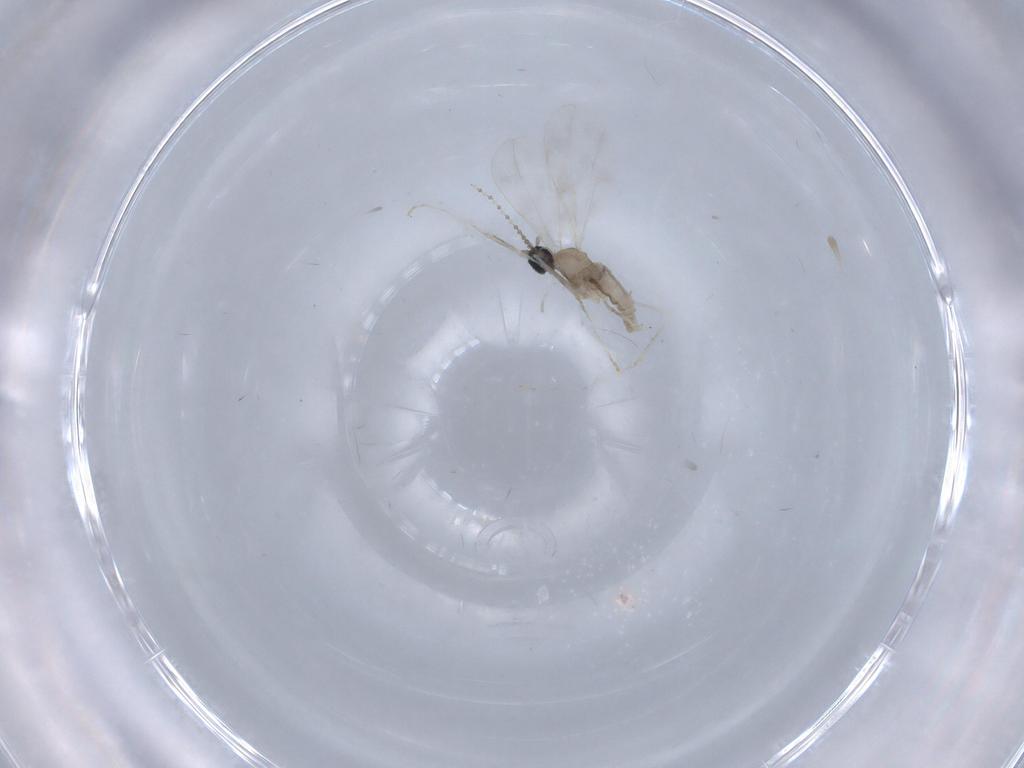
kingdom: Animalia
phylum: Arthropoda
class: Insecta
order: Diptera
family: Cecidomyiidae
